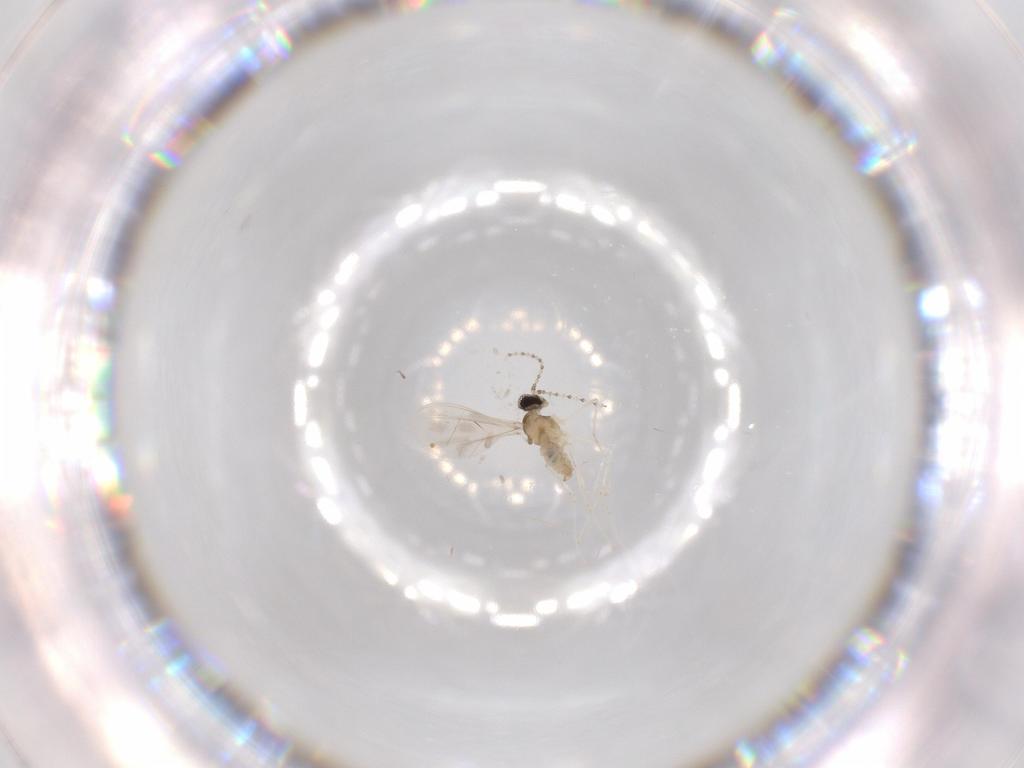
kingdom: Animalia
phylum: Arthropoda
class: Insecta
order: Diptera
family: Cecidomyiidae
